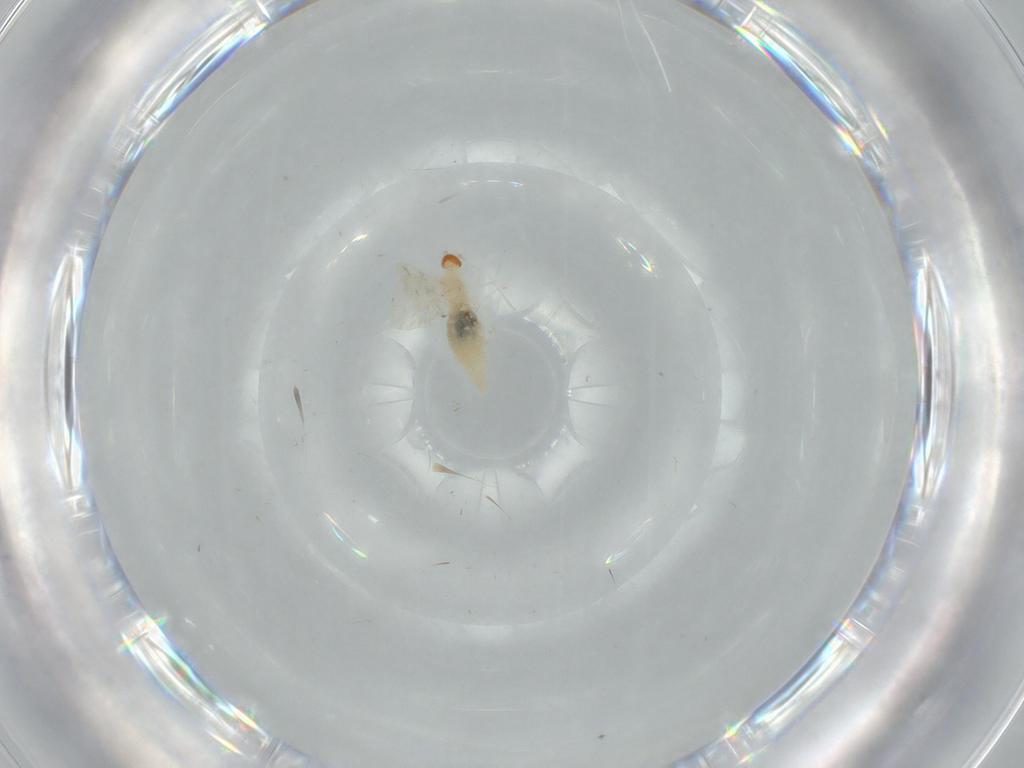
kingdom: Animalia
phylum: Arthropoda
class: Insecta
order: Diptera
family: Cecidomyiidae
